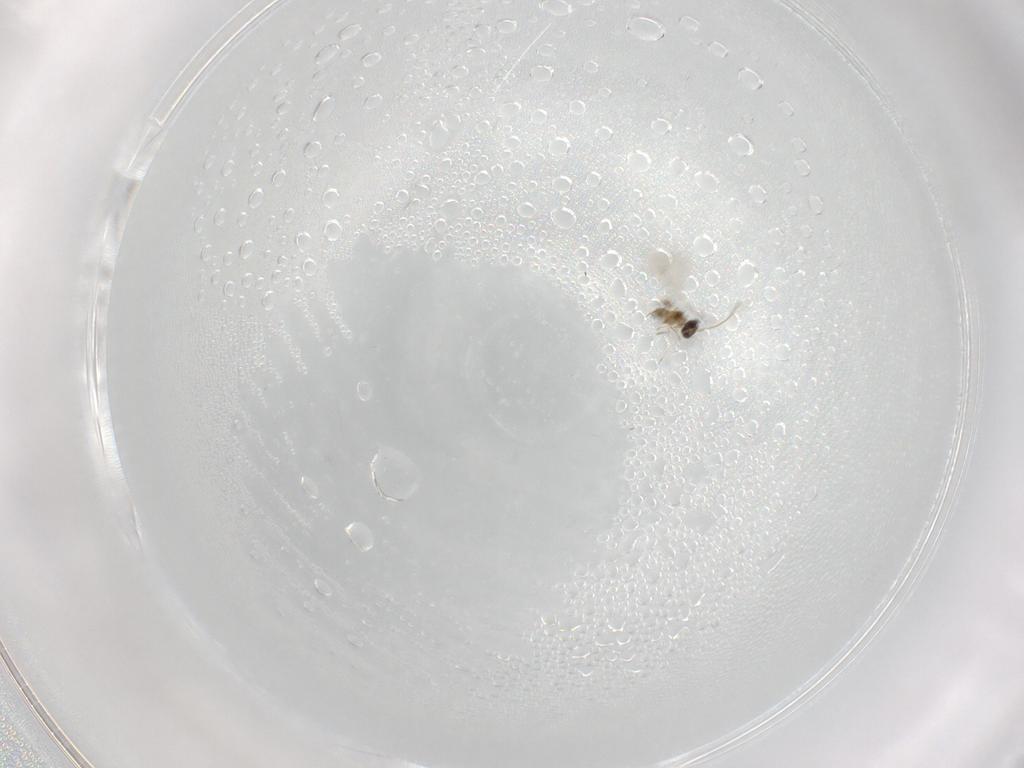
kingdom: Animalia
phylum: Arthropoda
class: Insecta
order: Hymenoptera
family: Mymaridae
